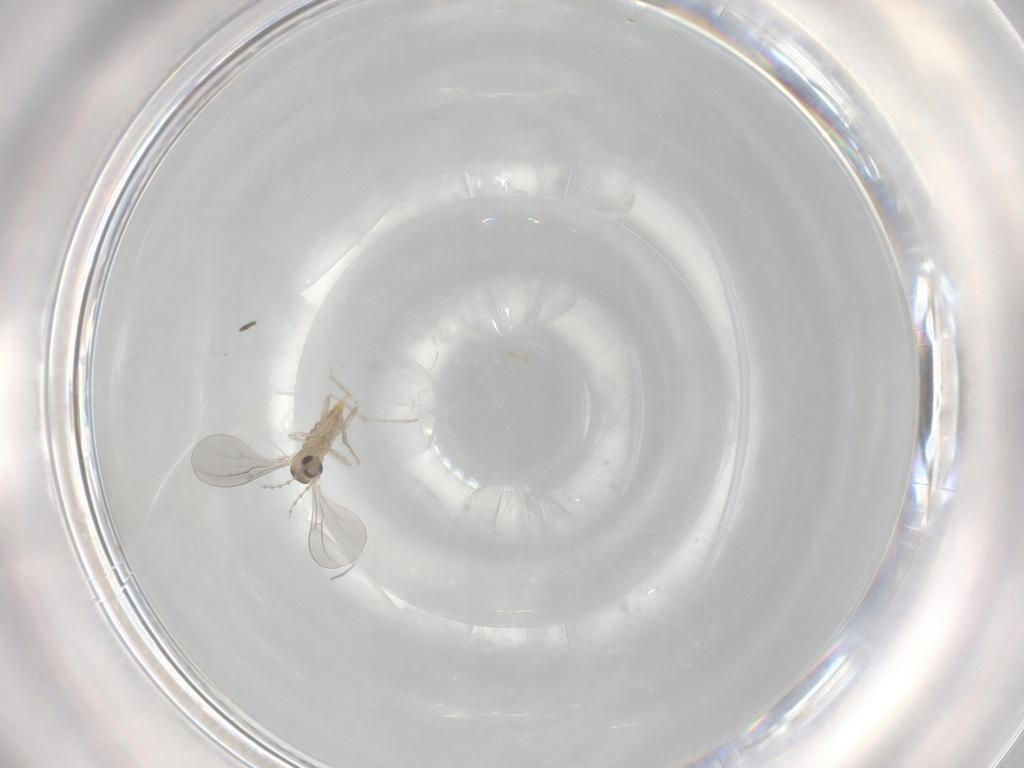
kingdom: Animalia
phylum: Arthropoda
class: Insecta
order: Diptera
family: Cecidomyiidae
